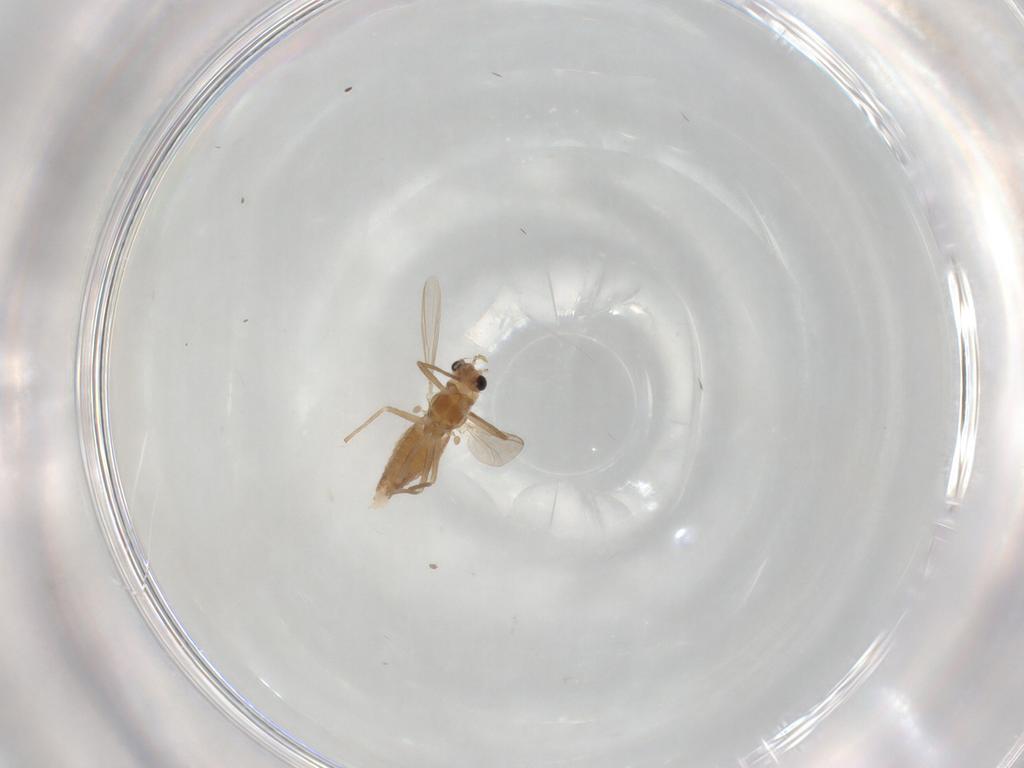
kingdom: Animalia
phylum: Arthropoda
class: Insecta
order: Diptera
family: Chironomidae
